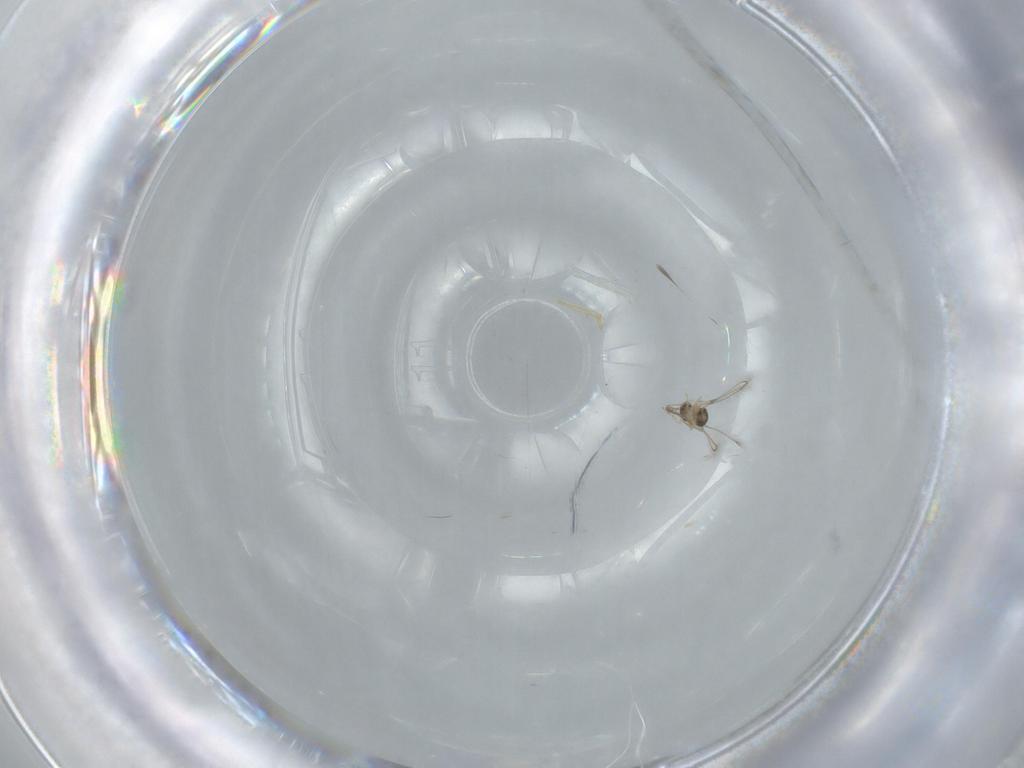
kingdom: Animalia
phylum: Arthropoda
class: Insecta
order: Hymenoptera
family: Mymaridae
